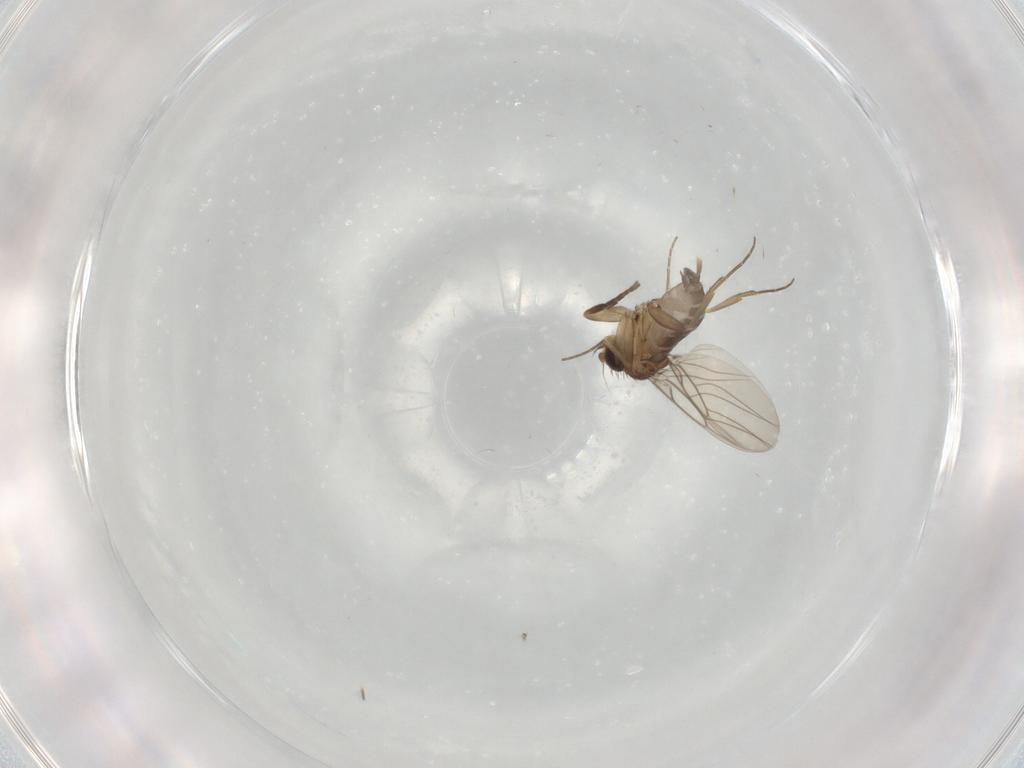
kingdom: Animalia
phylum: Arthropoda
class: Insecta
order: Diptera
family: Phoridae
